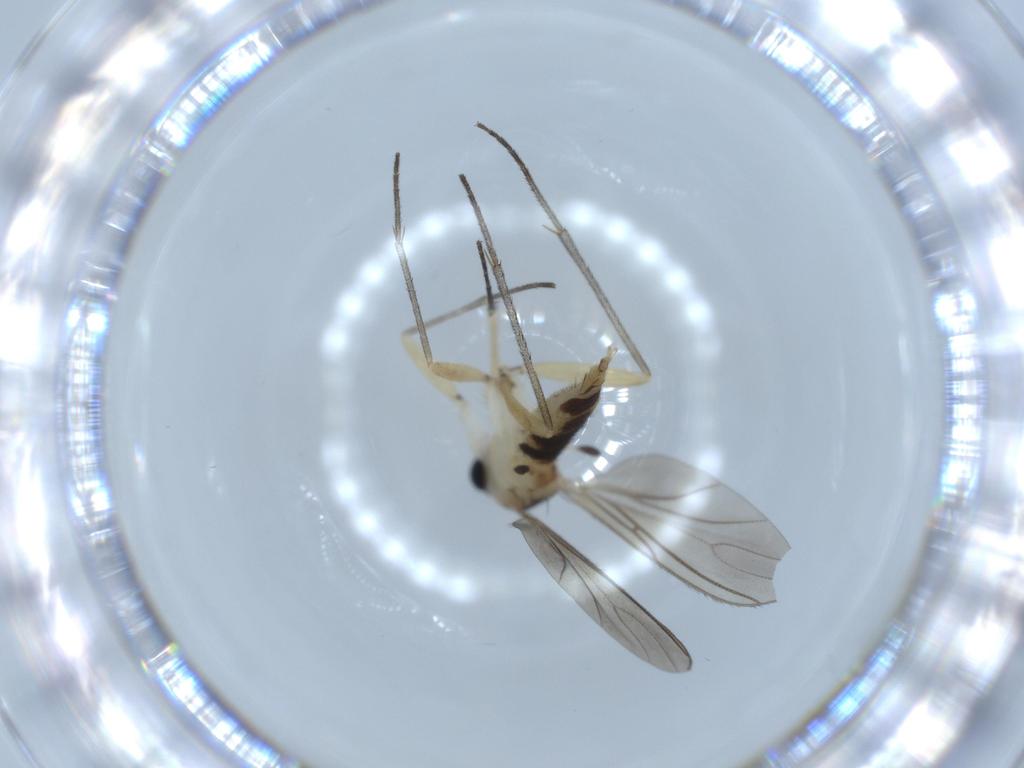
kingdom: Animalia
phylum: Arthropoda
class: Insecta
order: Diptera
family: Sciaridae
